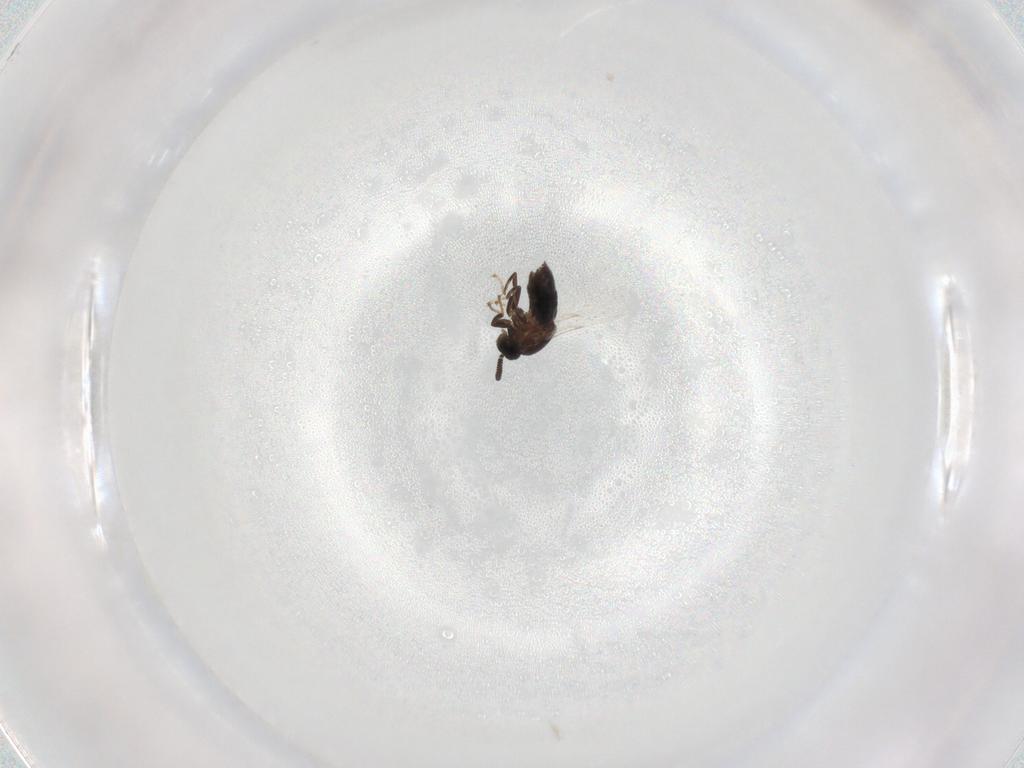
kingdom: Animalia
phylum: Arthropoda
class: Insecta
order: Diptera
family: Scatopsidae
